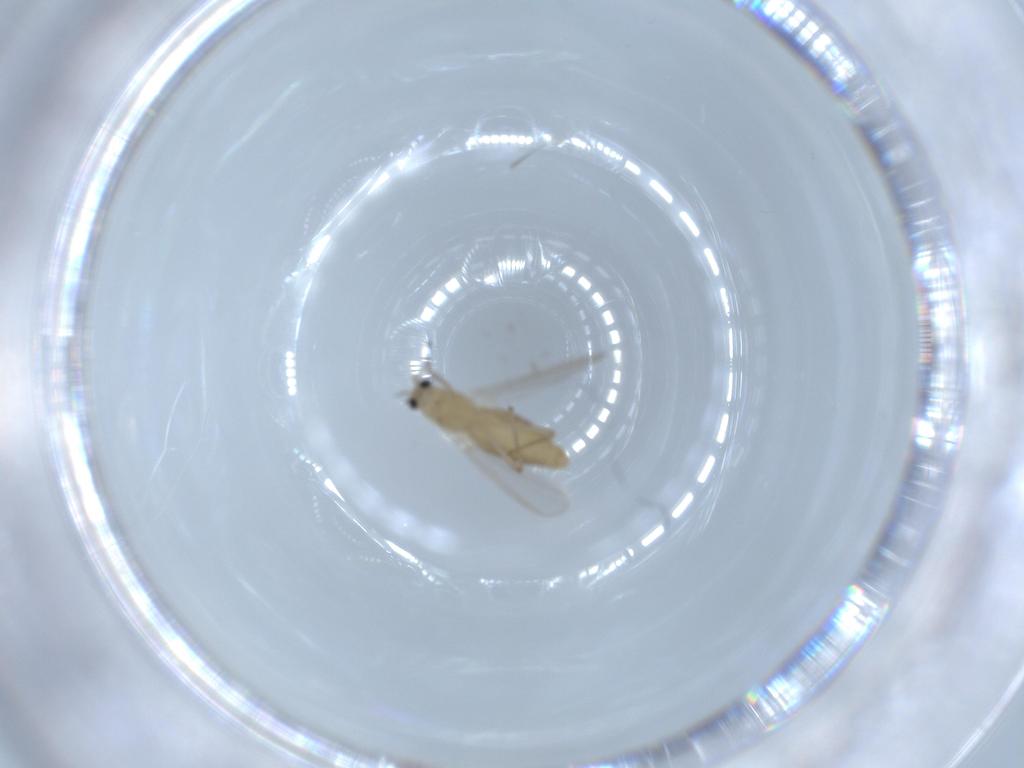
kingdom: Animalia
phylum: Arthropoda
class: Insecta
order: Diptera
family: Chironomidae
